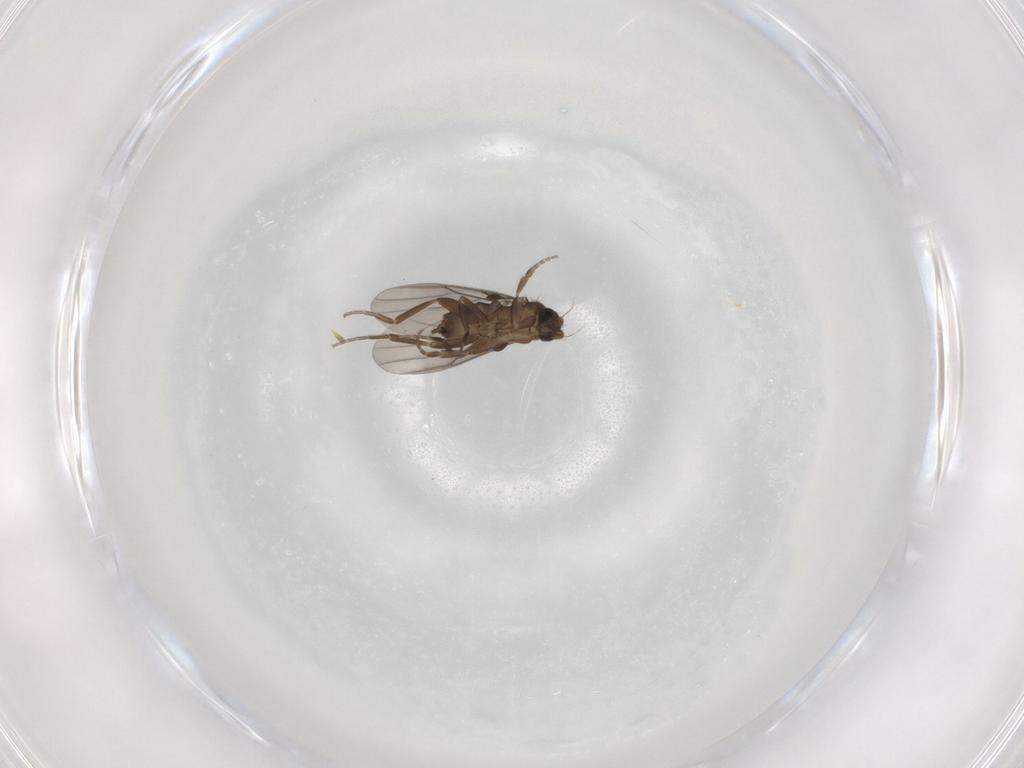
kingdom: Animalia
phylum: Arthropoda
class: Insecta
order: Diptera
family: Phoridae
